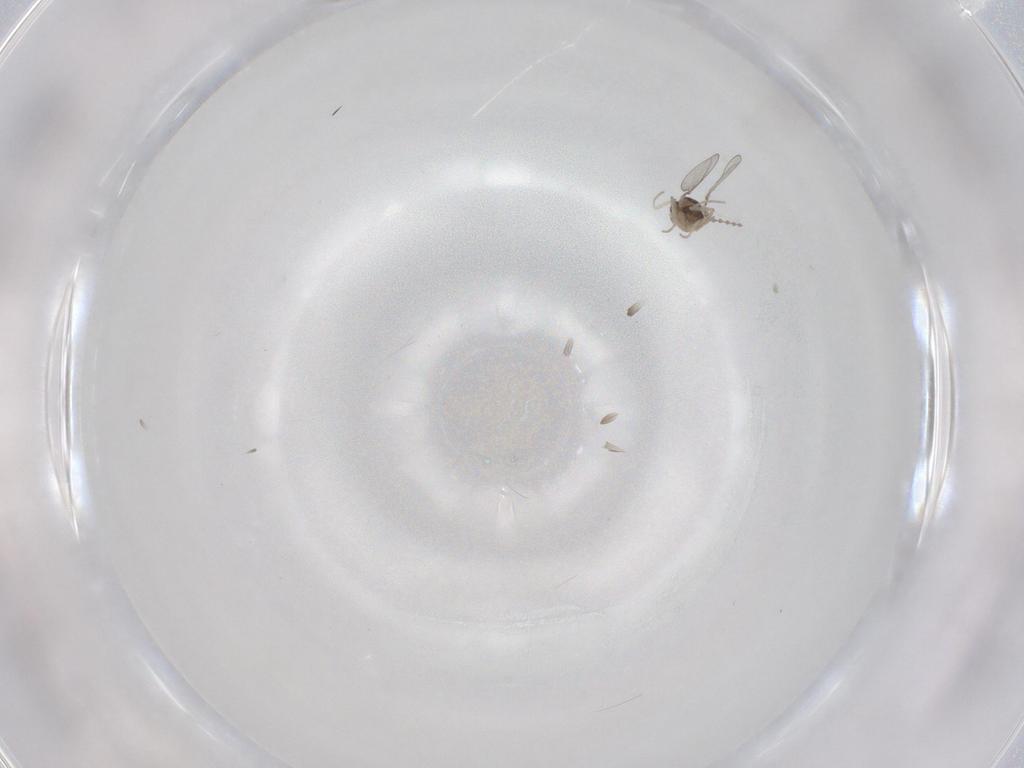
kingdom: Animalia
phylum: Arthropoda
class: Insecta
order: Diptera
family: Cecidomyiidae
